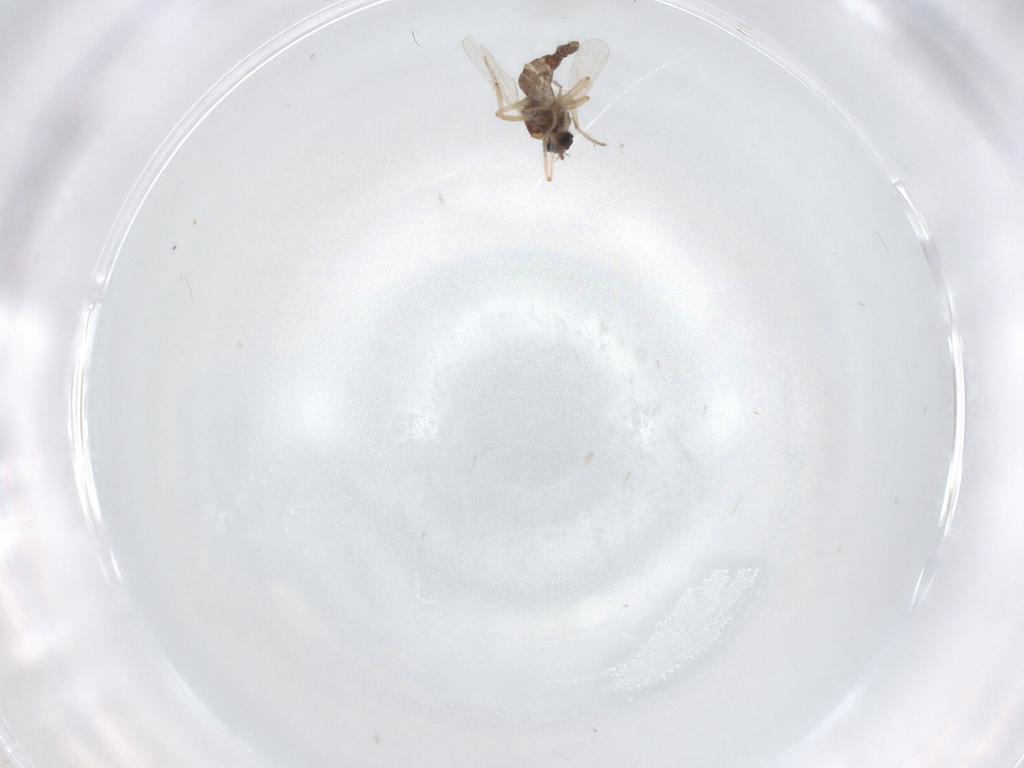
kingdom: Animalia
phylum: Arthropoda
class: Insecta
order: Diptera
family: Ceratopogonidae
